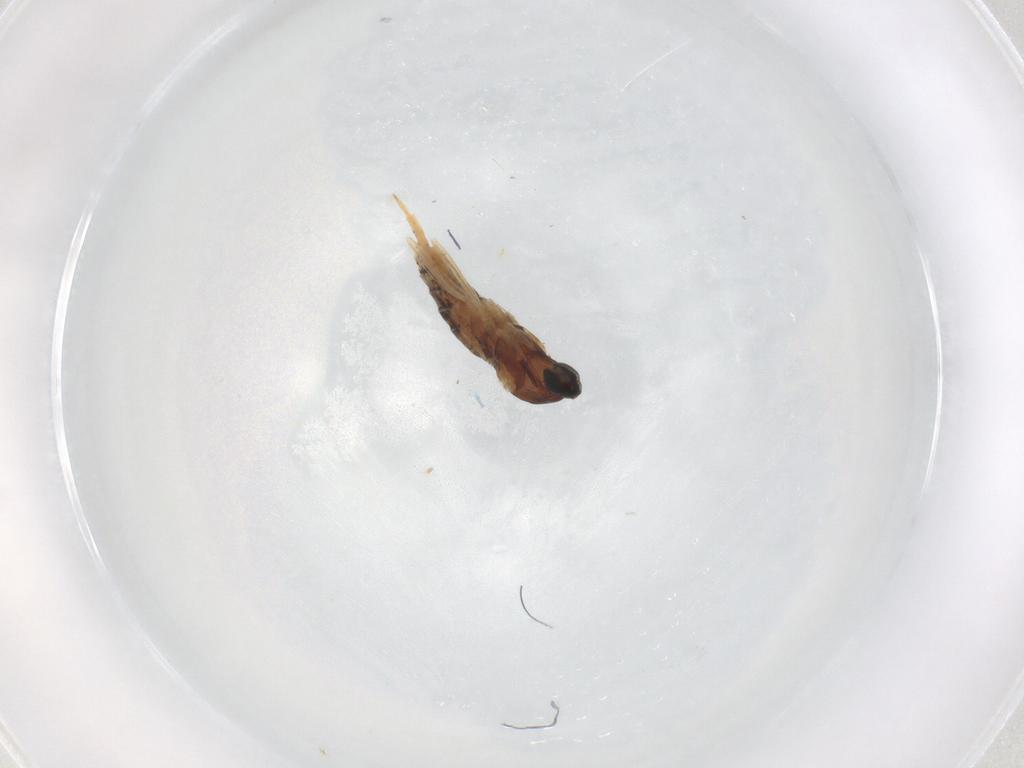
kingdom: Animalia
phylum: Arthropoda
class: Insecta
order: Diptera
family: Cecidomyiidae
